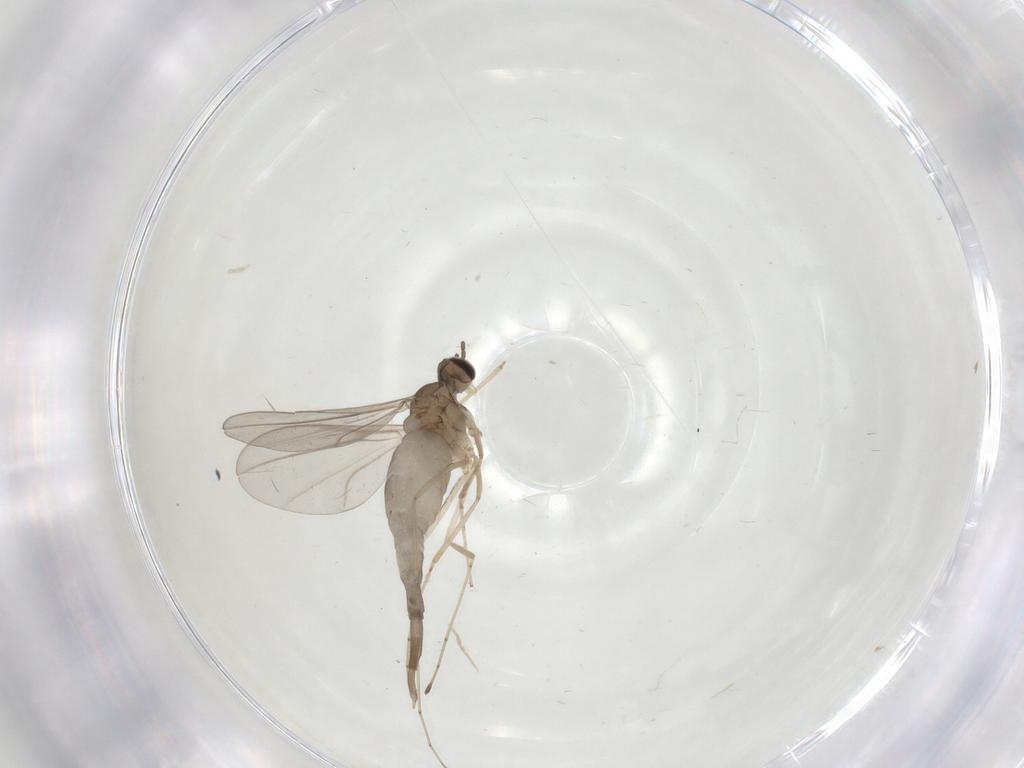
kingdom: Animalia
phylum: Arthropoda
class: Insecta
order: Diptera
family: Cecidomyiidae
